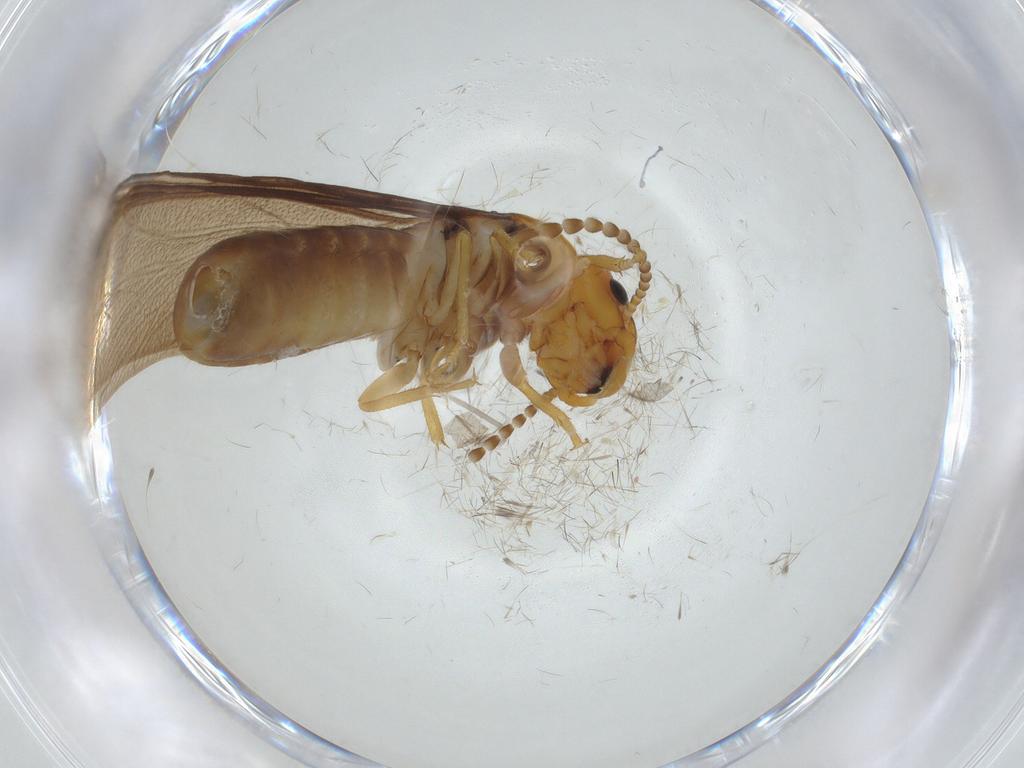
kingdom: Animalia
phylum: Arthropoda
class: Insecta
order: Blattodea
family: Kalotermitidae
